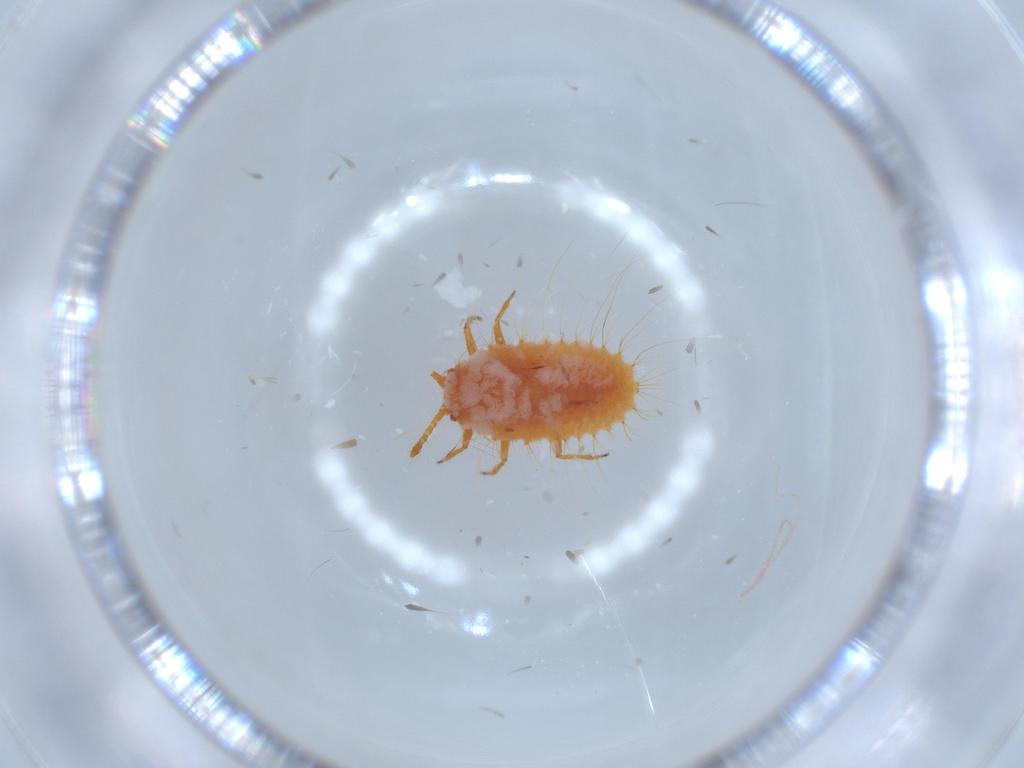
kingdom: Animalia
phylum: Arthropoda
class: Insecta
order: Hemiptera
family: Coccoidea_incertae_sedis
